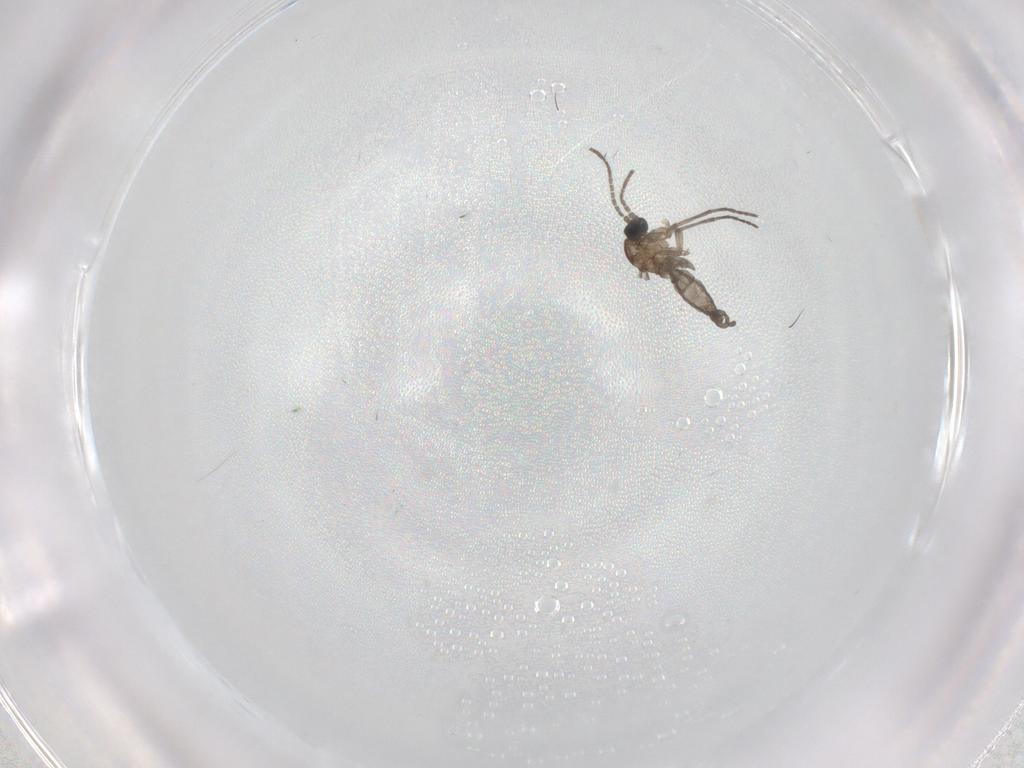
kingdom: Animalia
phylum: Arthropoda
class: Insecta
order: Diptera
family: Sciaridae
